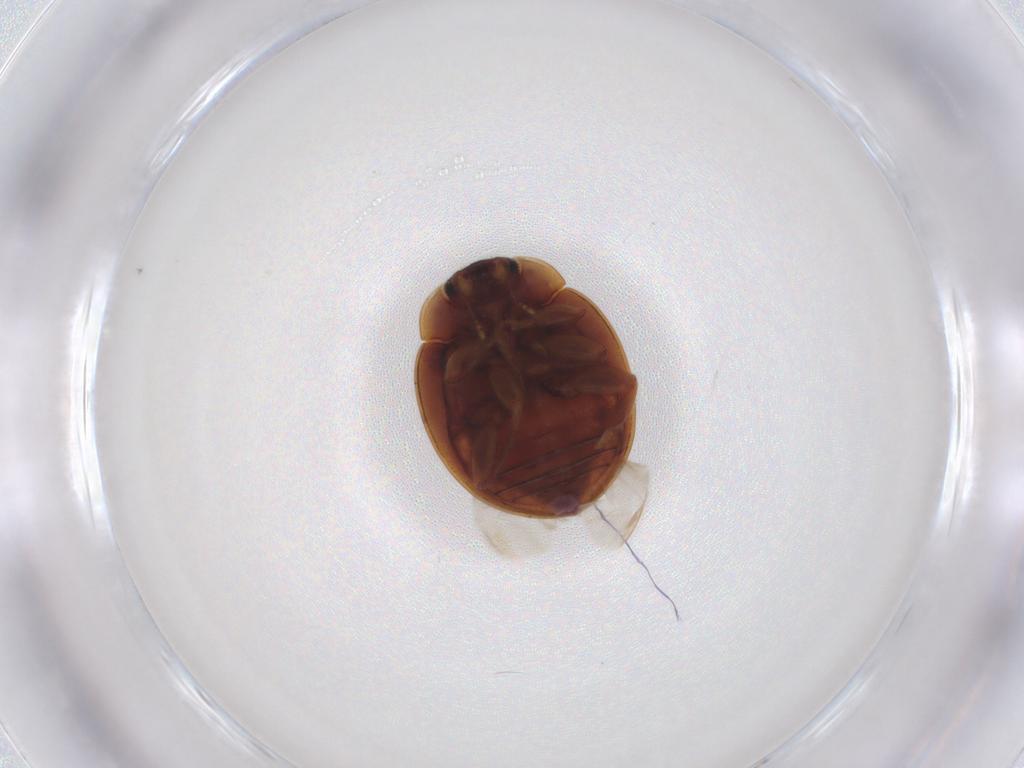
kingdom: Animalia
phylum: Arthropoda
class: Insecta
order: Coleoptera
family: Coccinellidae
